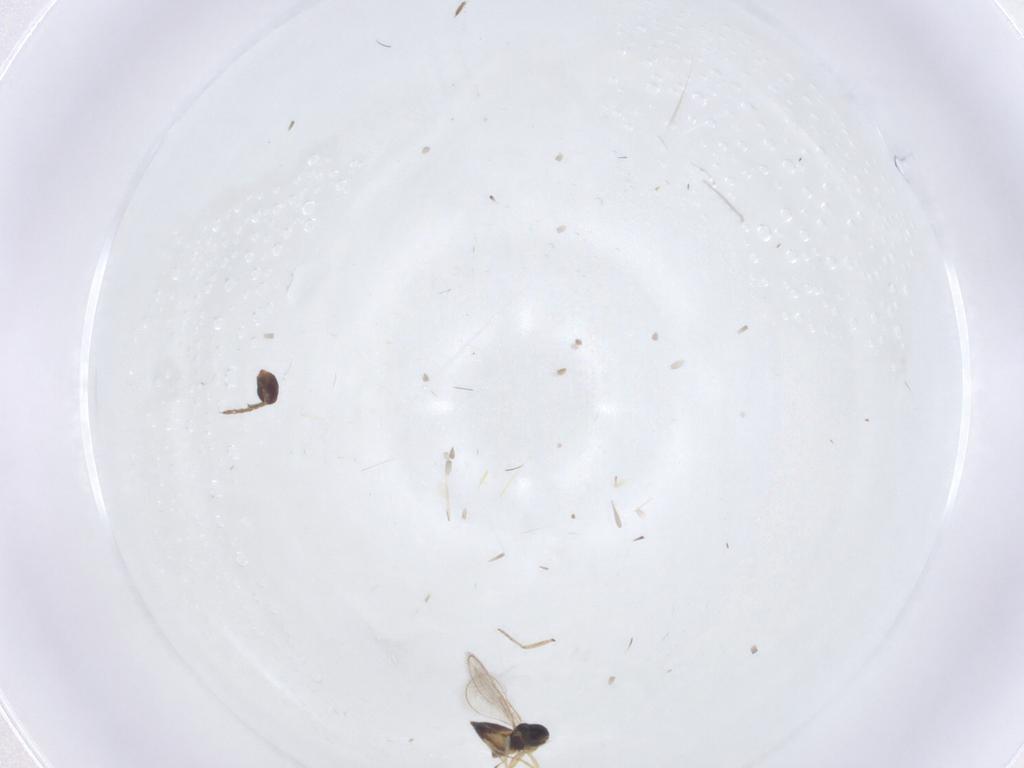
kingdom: Animalia
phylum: Arthropoda
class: Insecta
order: Hymenoptera
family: Eulophidae
